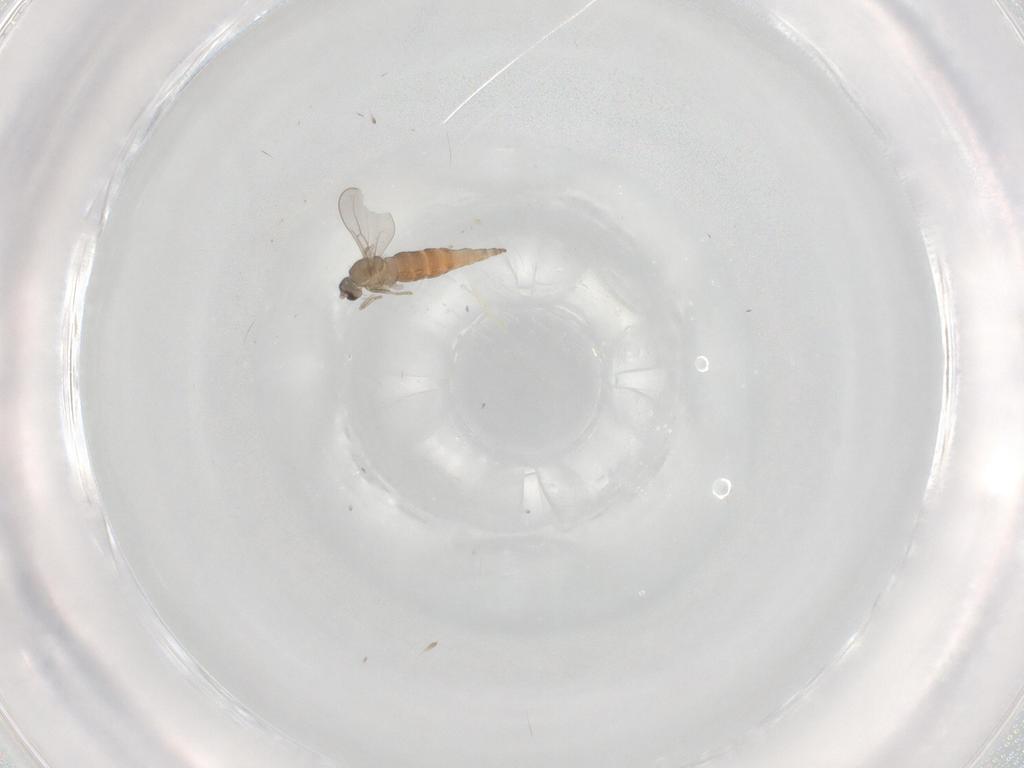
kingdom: Animalia
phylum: Arthropoda
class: Insecta
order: Diptera
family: Cecidomyiidae
